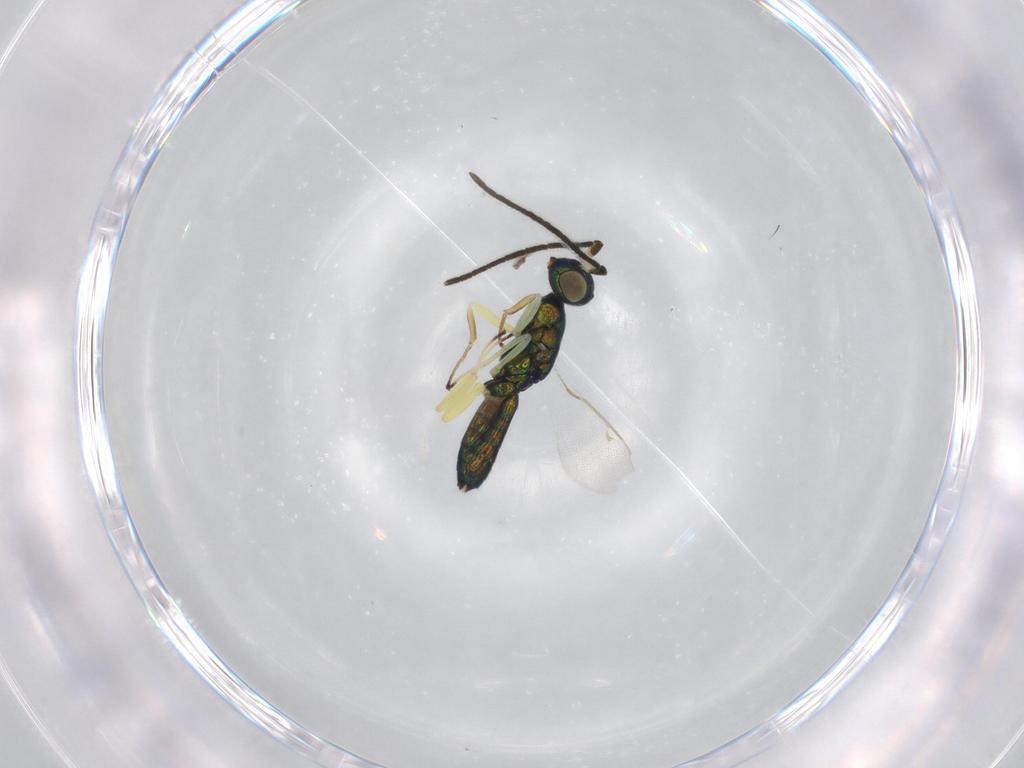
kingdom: Animalia
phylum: Arthropoda
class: Insecta
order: Hymenoptera
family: Pteromalidae
